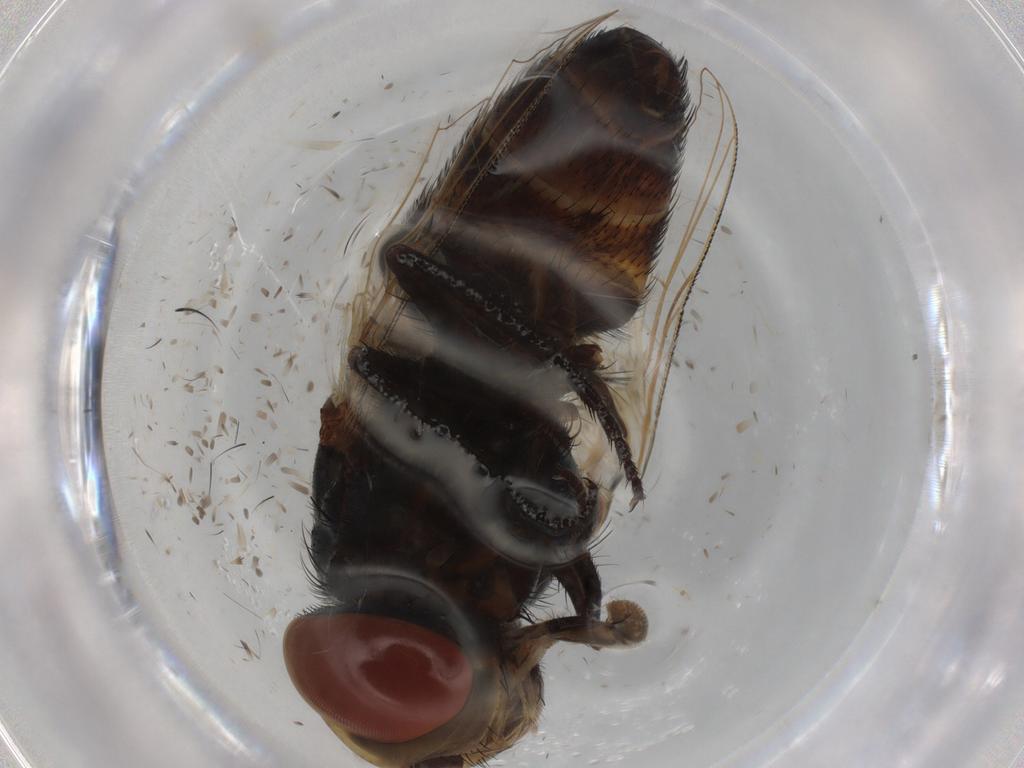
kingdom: Animalia
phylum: Arthropoda
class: Insecta
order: Diptera
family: Glossinidae
